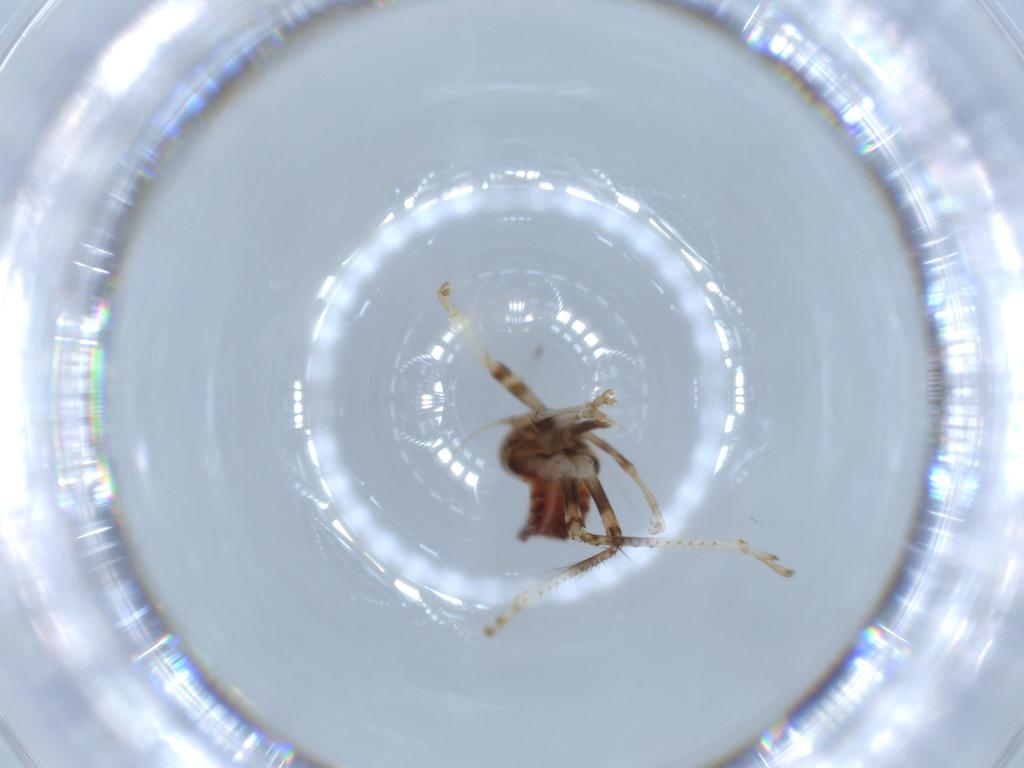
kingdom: Animalia
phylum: Arthropoda
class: Insecta
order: Hemiptera
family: Cicadellidae
